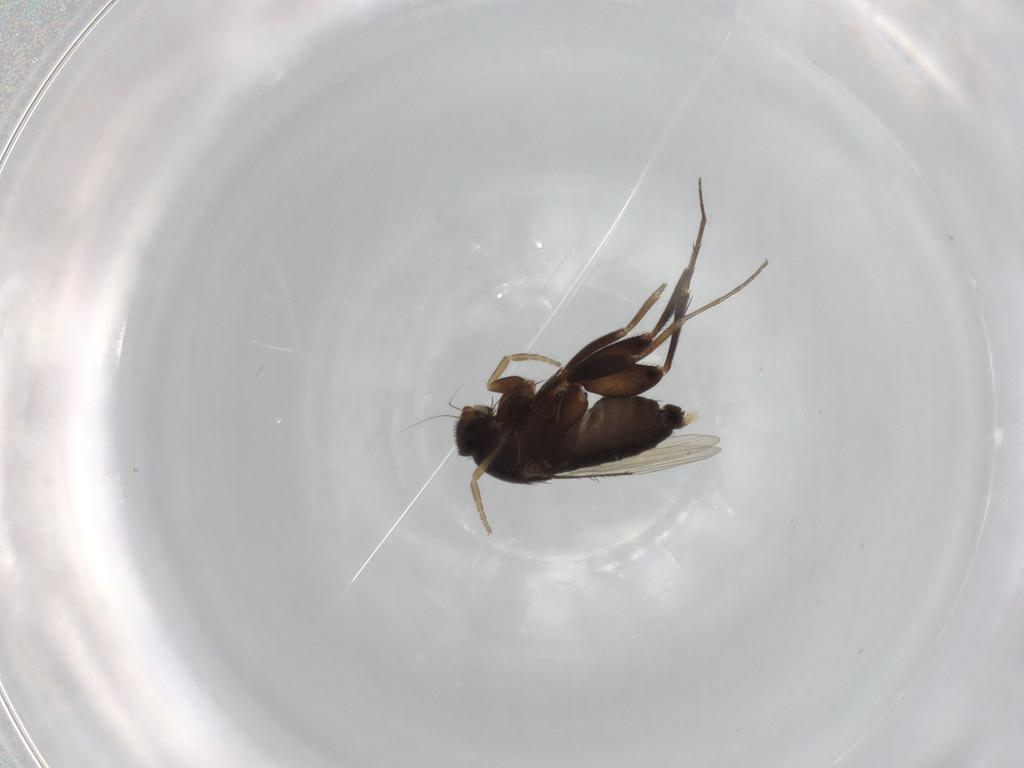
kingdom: Animalia
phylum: Arthropoda
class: Insecta
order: Diptera
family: Phoridae
